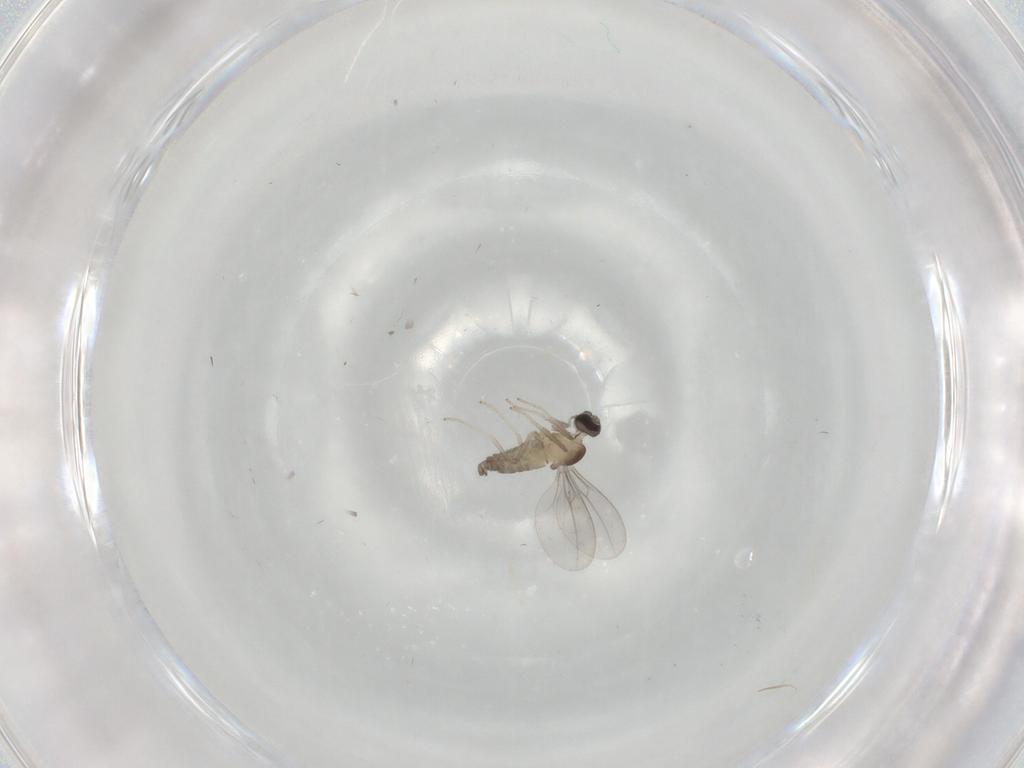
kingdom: Animalia
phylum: Arthropoda
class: Insecta
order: Diptera
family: Cecidomyiidae
